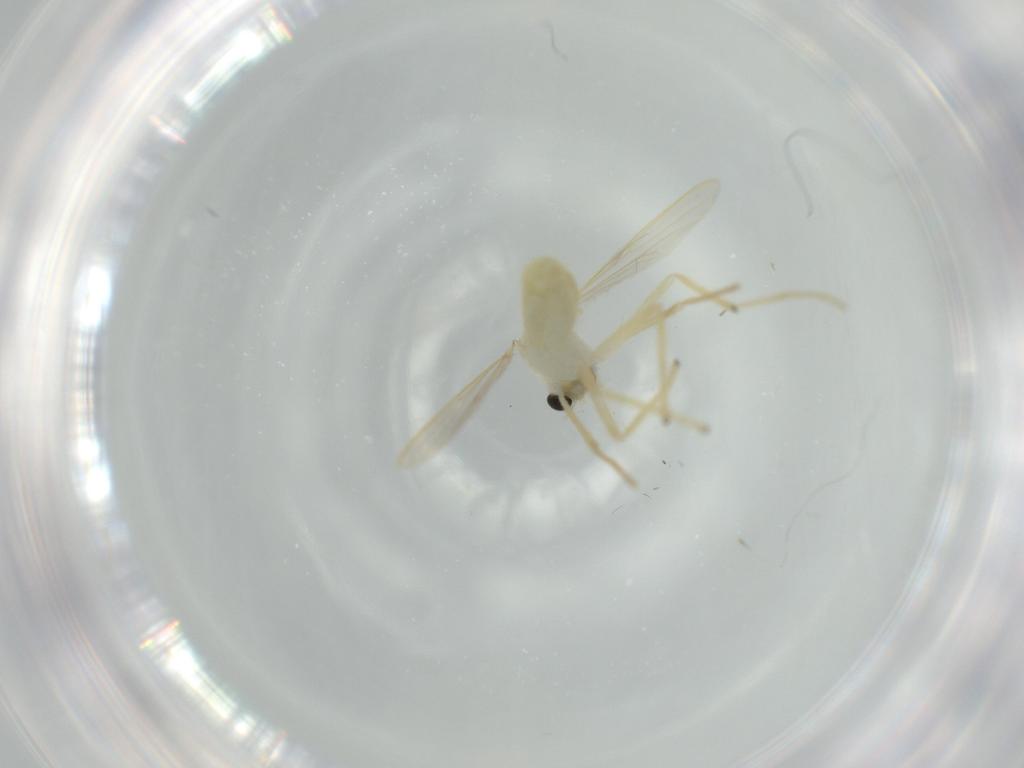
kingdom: Animalia
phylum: Arthropoda
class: Insecta
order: Diptera
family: Chironomidae
